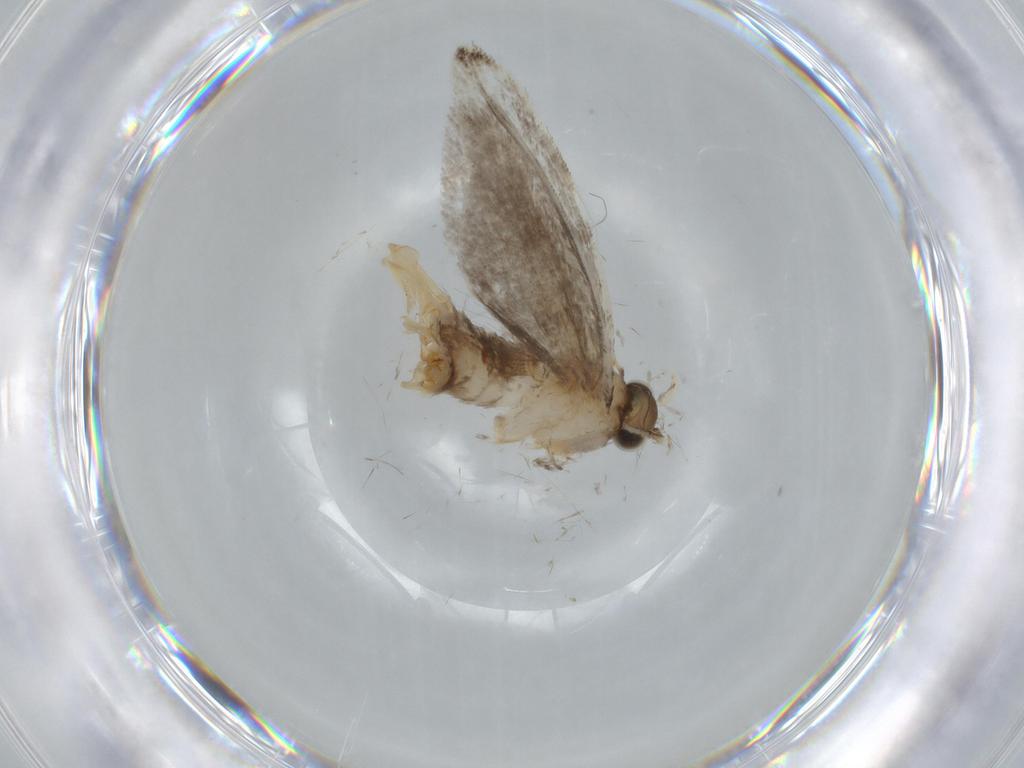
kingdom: Animalia
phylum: Arthropoda
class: Insecta
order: Lepidoptera
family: Tineidae
